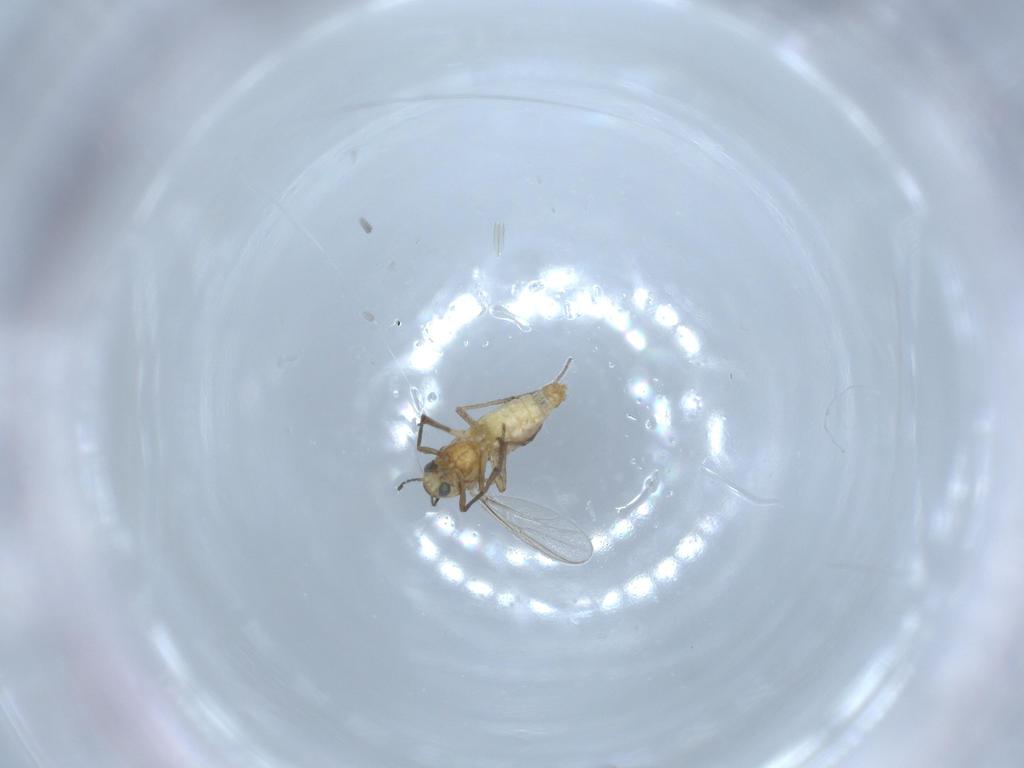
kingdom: Animalia
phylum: Arthropoda
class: Insecta
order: Diptera
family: Chironomidae
